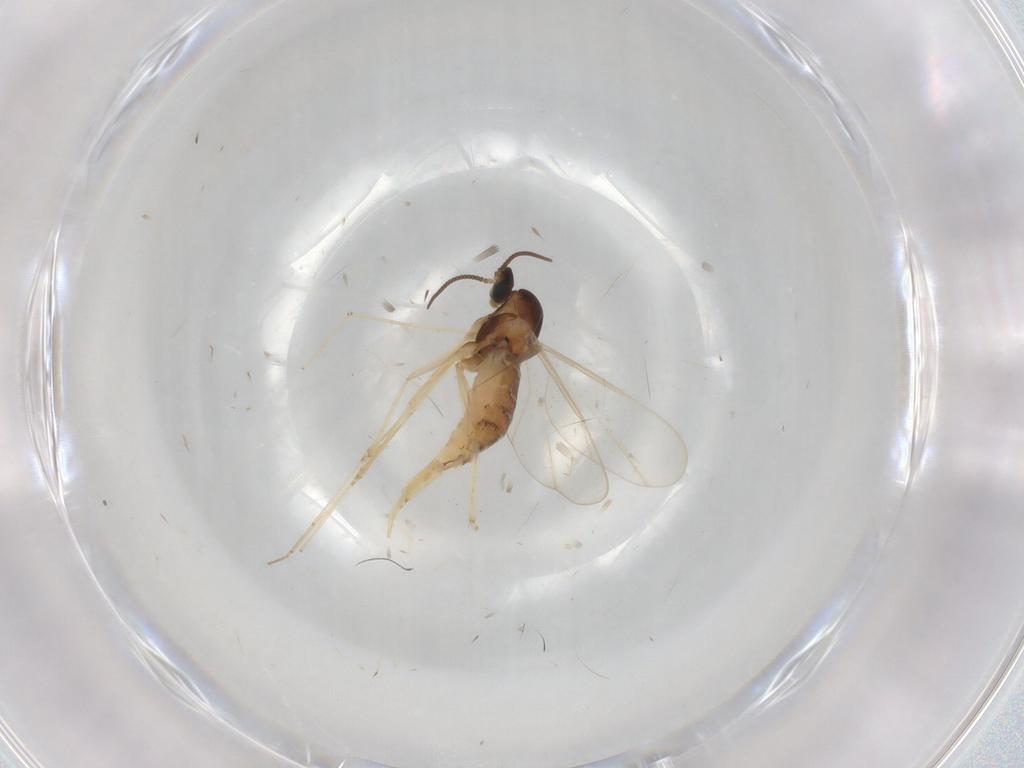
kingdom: Animalia
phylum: Arthropoda
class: Insecta
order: Diptera
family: Cecidomyiidae
